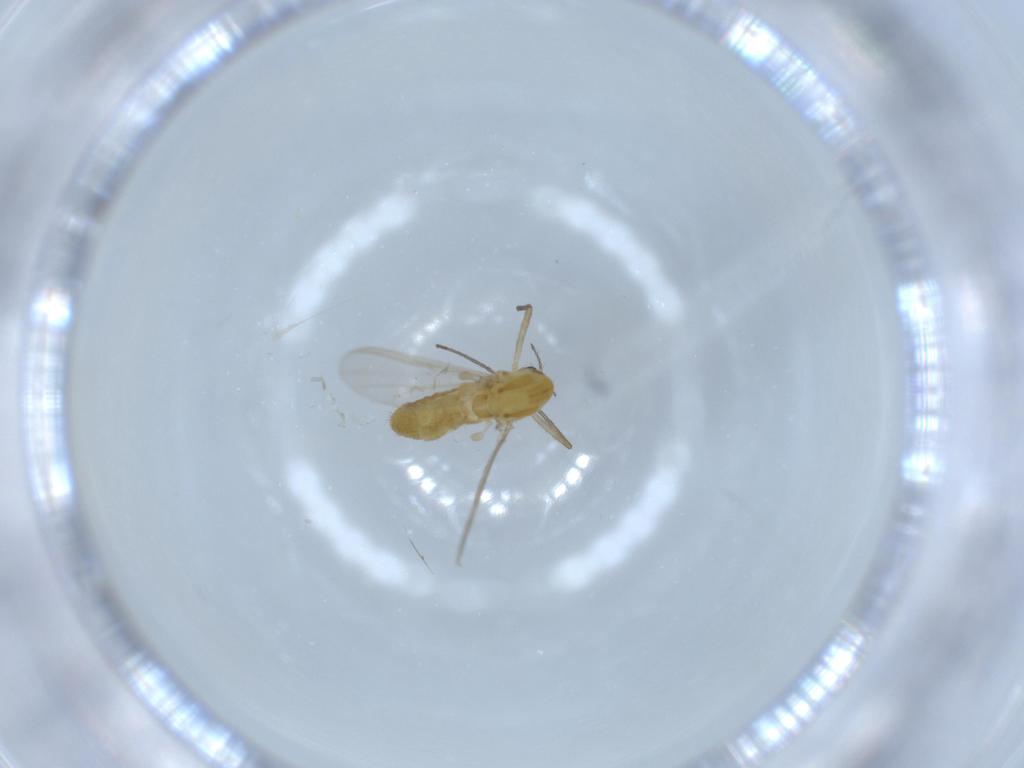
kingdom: Animalia
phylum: Arthropoda
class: Insecta
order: Diptera
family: Chironomidae
